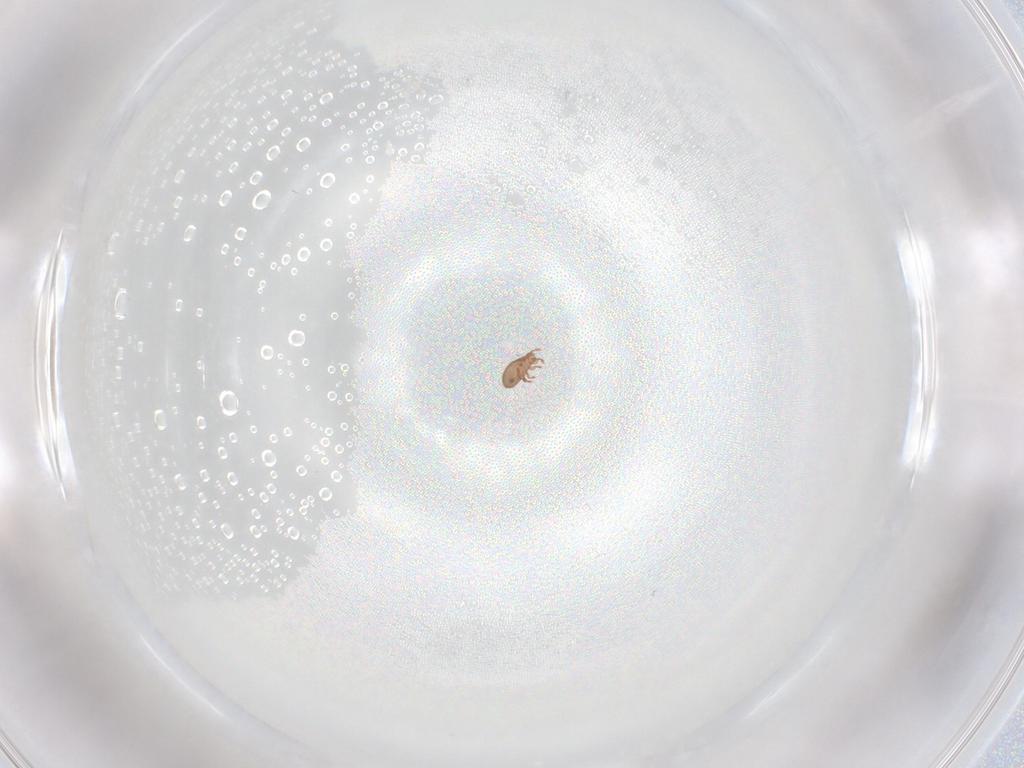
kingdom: Animalia
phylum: Arthropoda
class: Arachnida
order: Sarcoptiformes
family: Eremaeidae
